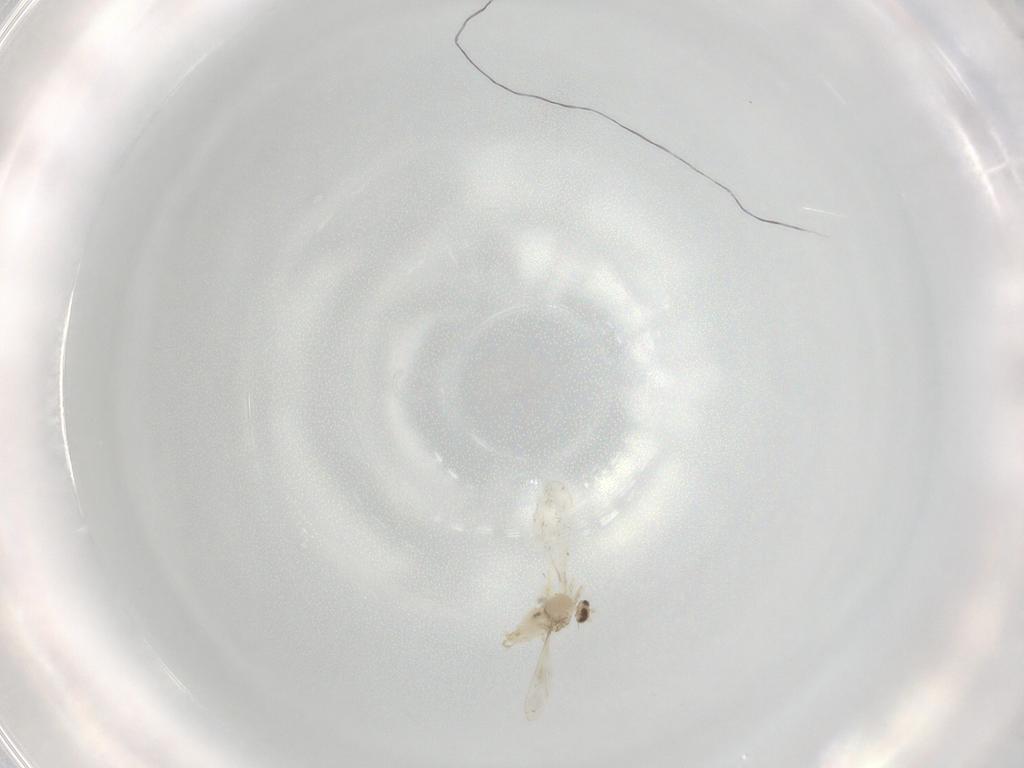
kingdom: Animalia
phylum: Arthropoda
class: Insecta
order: Diptera
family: Cecidomyiidae
